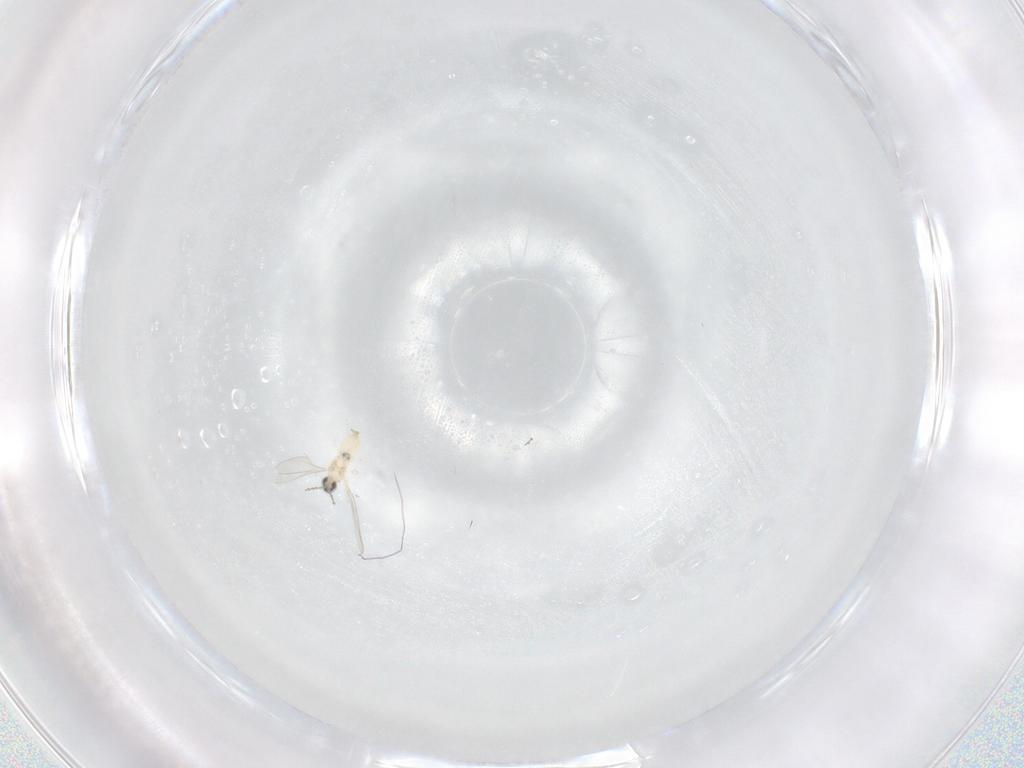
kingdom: Animalia
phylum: Arthropoda
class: Insecta
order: Diptera
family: Cecidomyiidae
